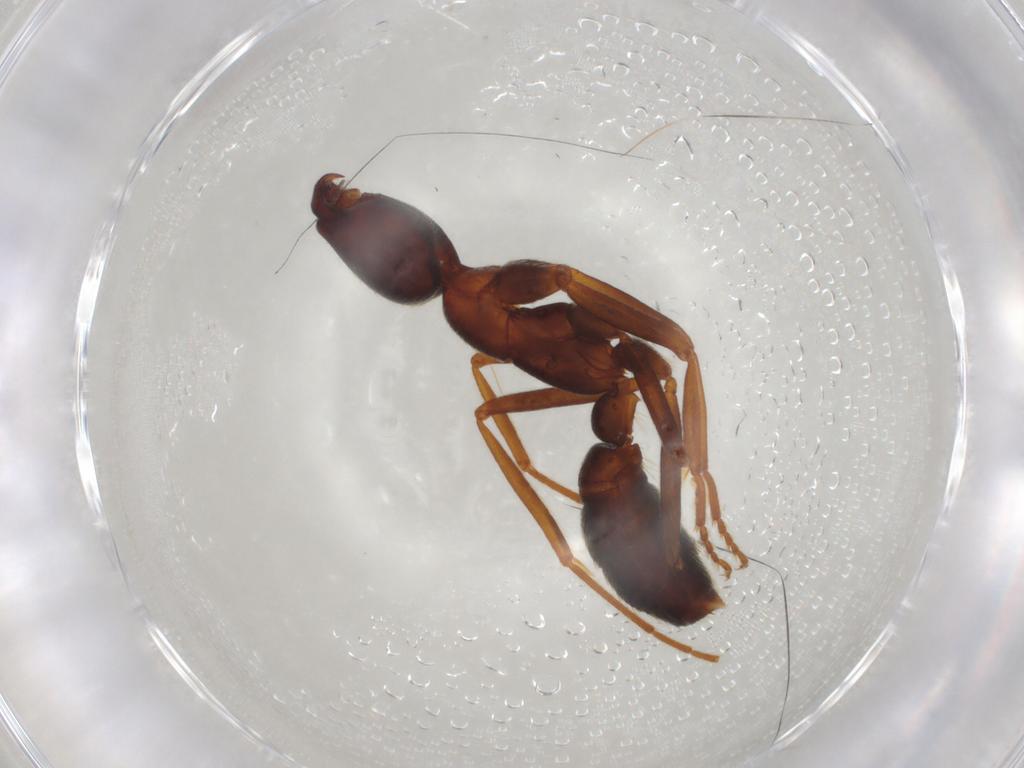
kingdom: Animalia
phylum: Arthropoda
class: Insecta
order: Hymenoptera
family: Formicidae
